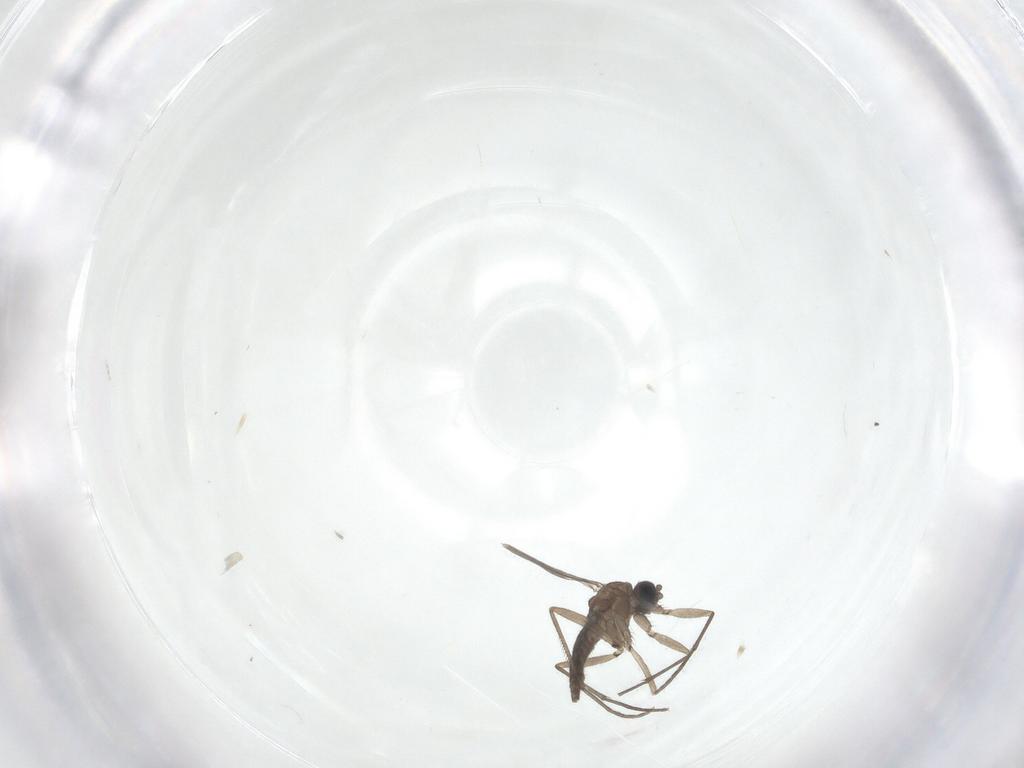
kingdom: Animalia
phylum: Arthropoda
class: Insecta
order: Diptera
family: Sciaridae
